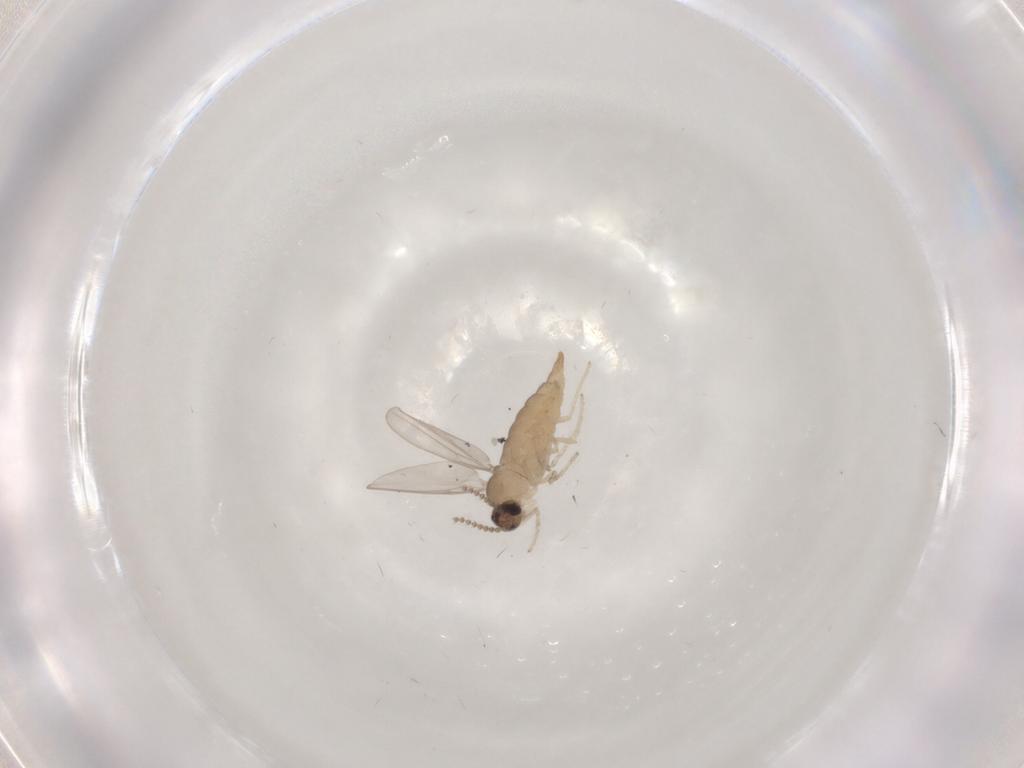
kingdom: Animalia
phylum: Arthropoda
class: Insecta
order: Diptera
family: Cecidomyiidae
